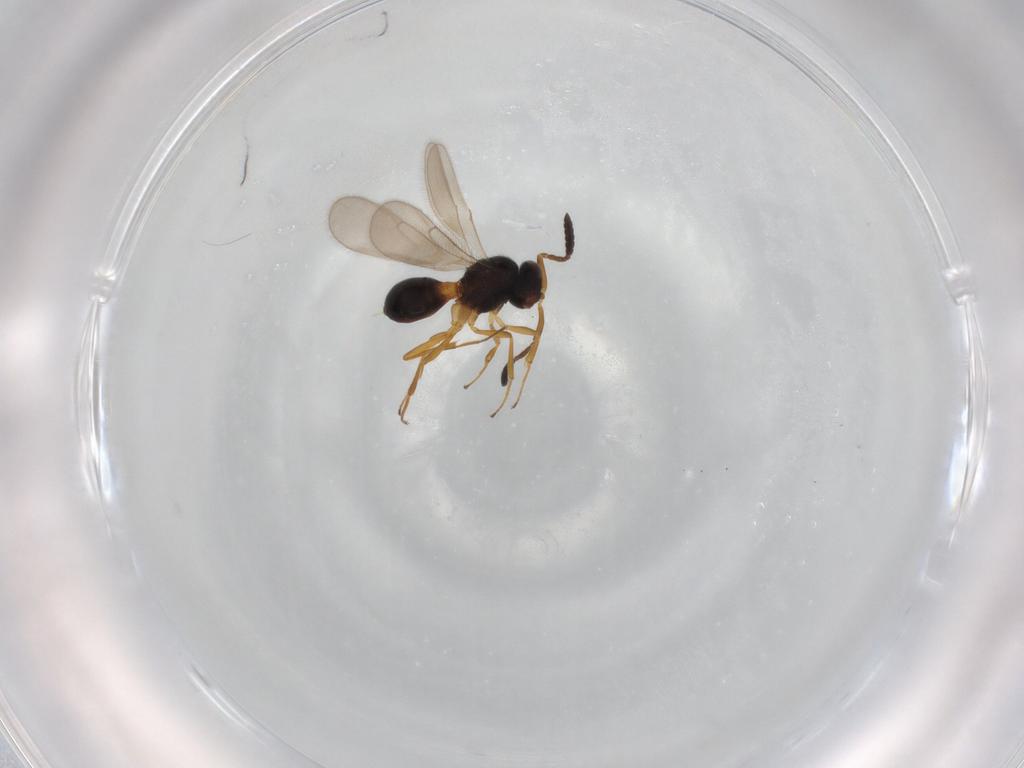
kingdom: Animalia
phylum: Arthropoda
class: Insecta
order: Hymenoptera
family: Scelionidae
